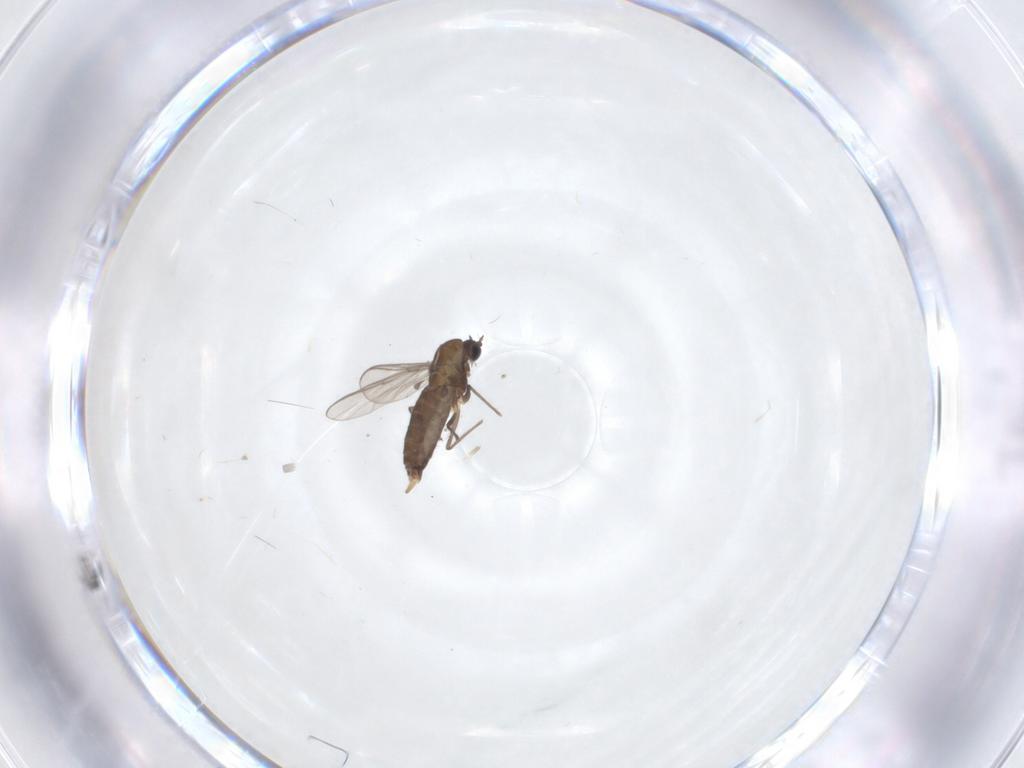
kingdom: Animalia
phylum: Arthropoda
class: Insecta
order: Diptera
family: Chironomidae
